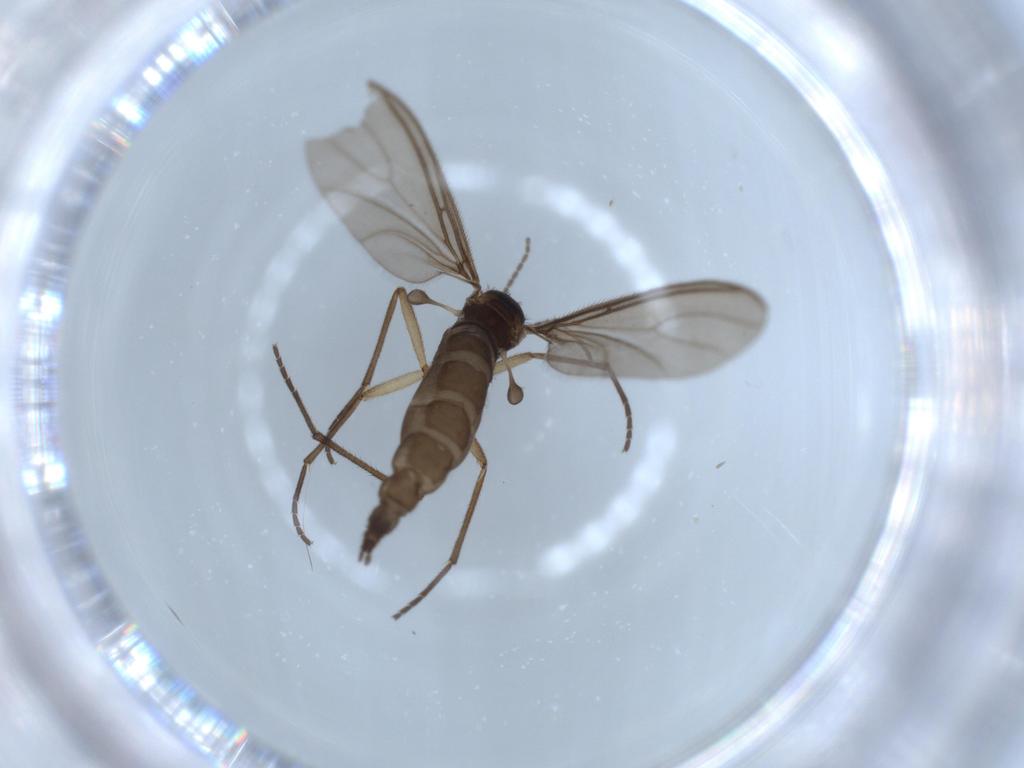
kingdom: Animalia
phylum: Arthropoda
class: Insecta
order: Diptera
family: Sciaridae
